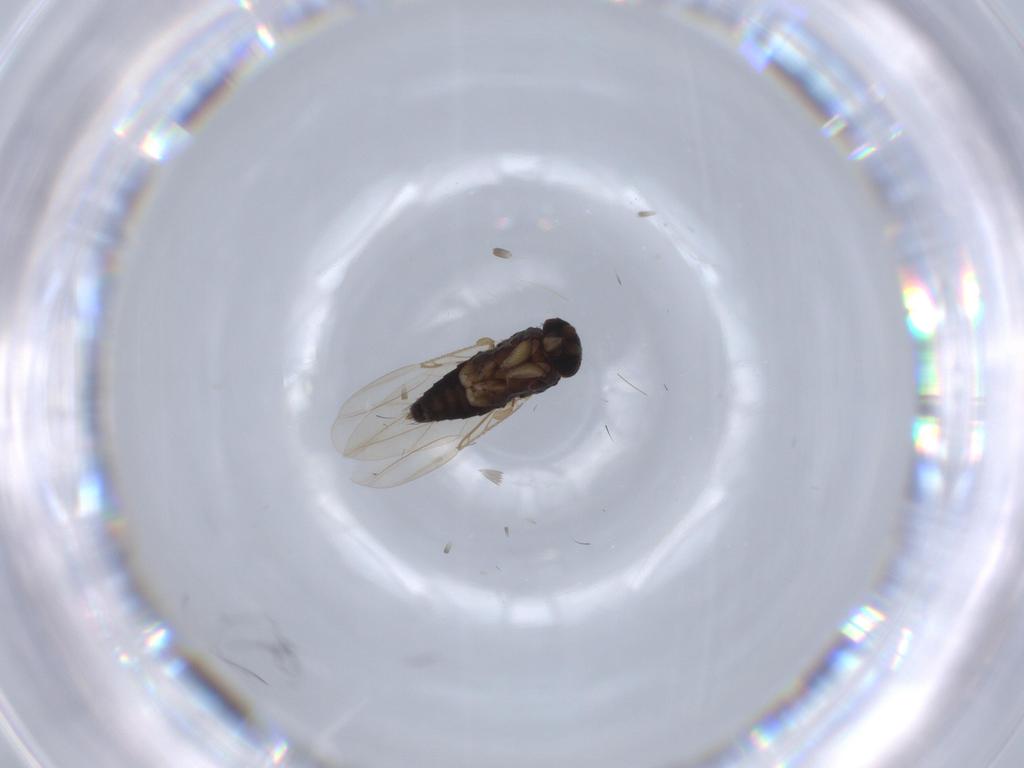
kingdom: Animalia
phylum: Arthropoda
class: Insecta
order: Diptera
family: Phoridae
